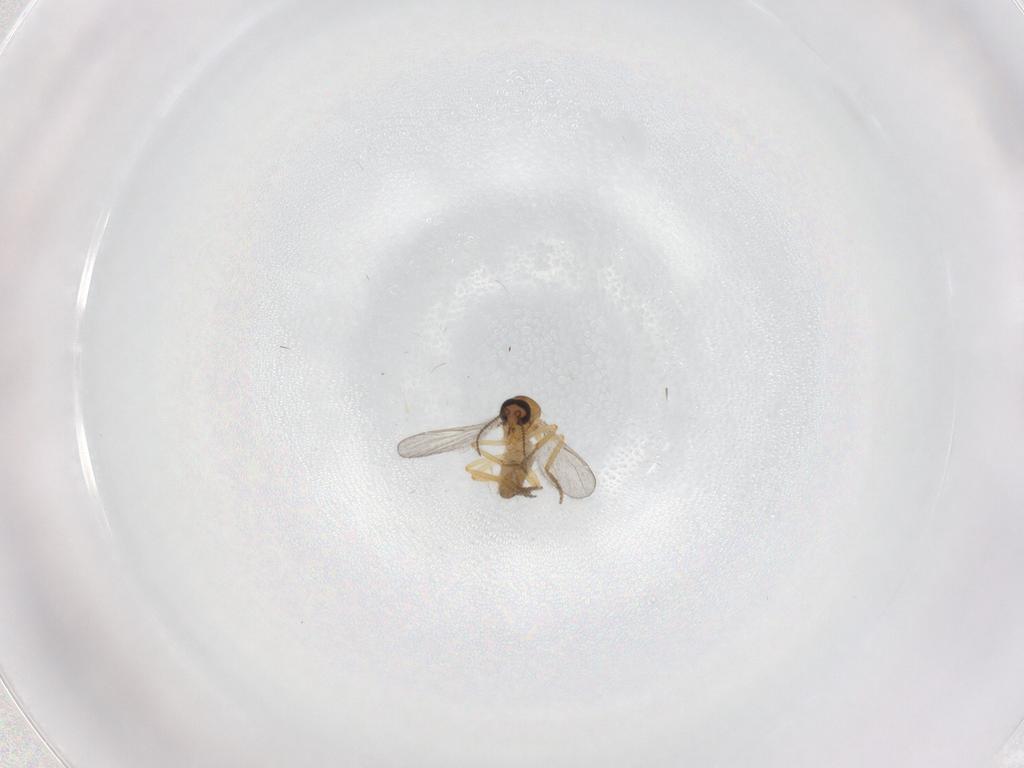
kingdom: Animalia
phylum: Arthropoda
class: Insecta
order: Diptera
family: Ceratopogonidae
